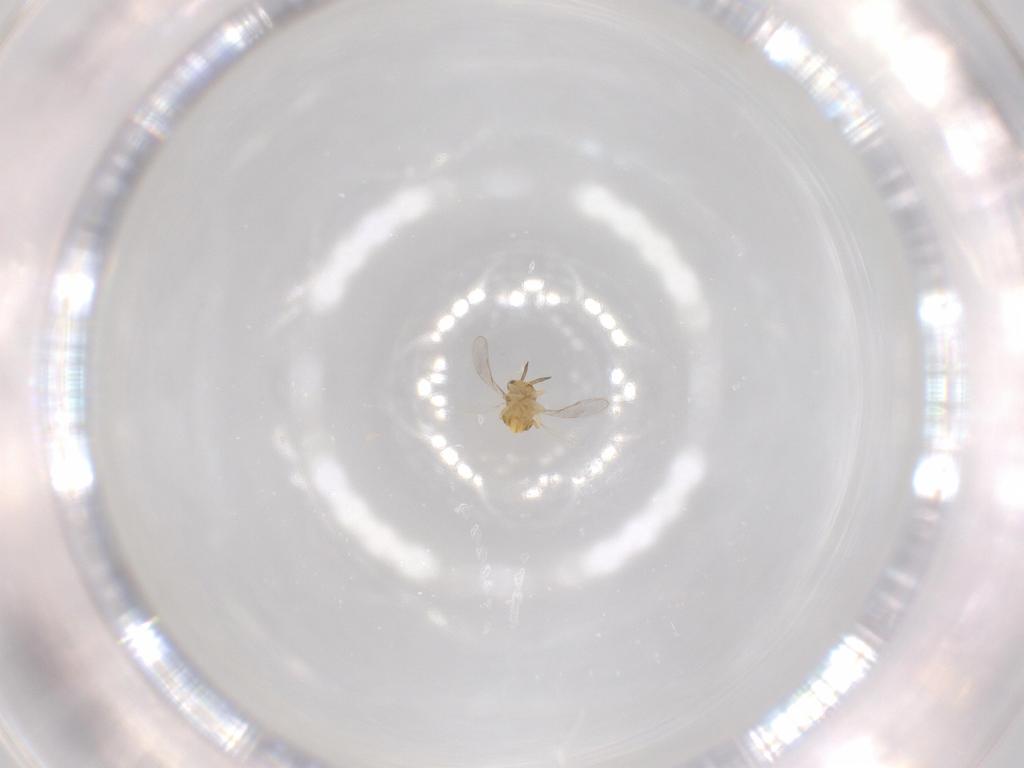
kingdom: Animalia
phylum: Arthropoda
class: Insecta
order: Hymenoptera
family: Aphelinidae
